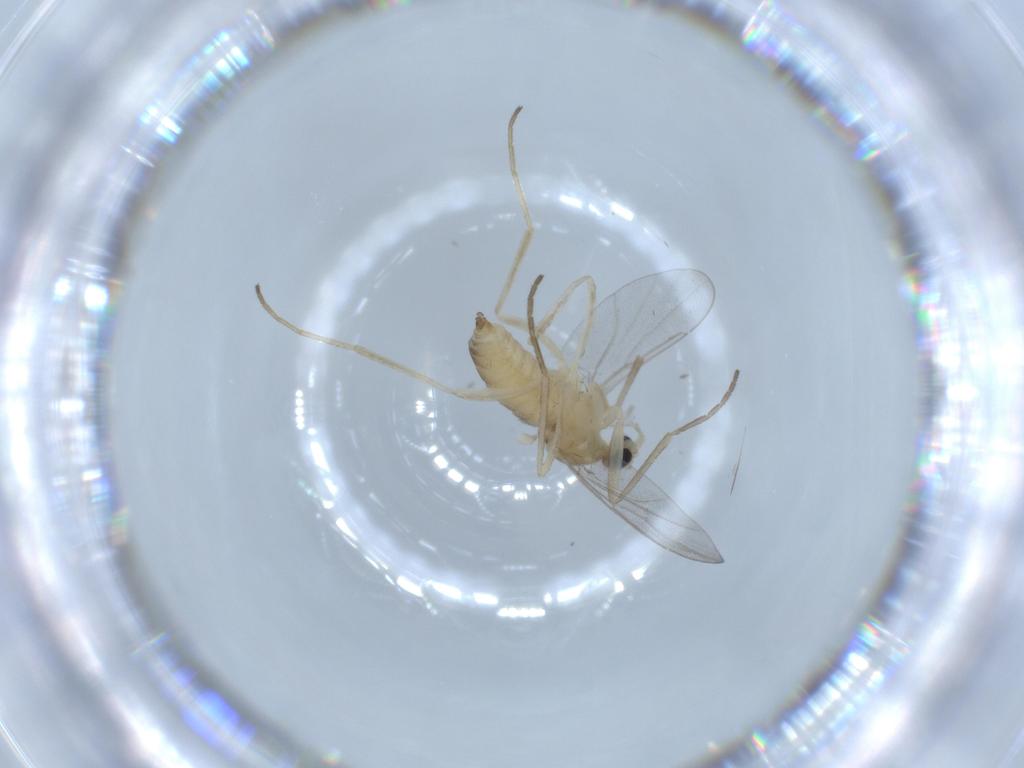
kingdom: Animalia
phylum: Arthropoda
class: Insecta
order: Diptera
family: Cecidomyiidae
